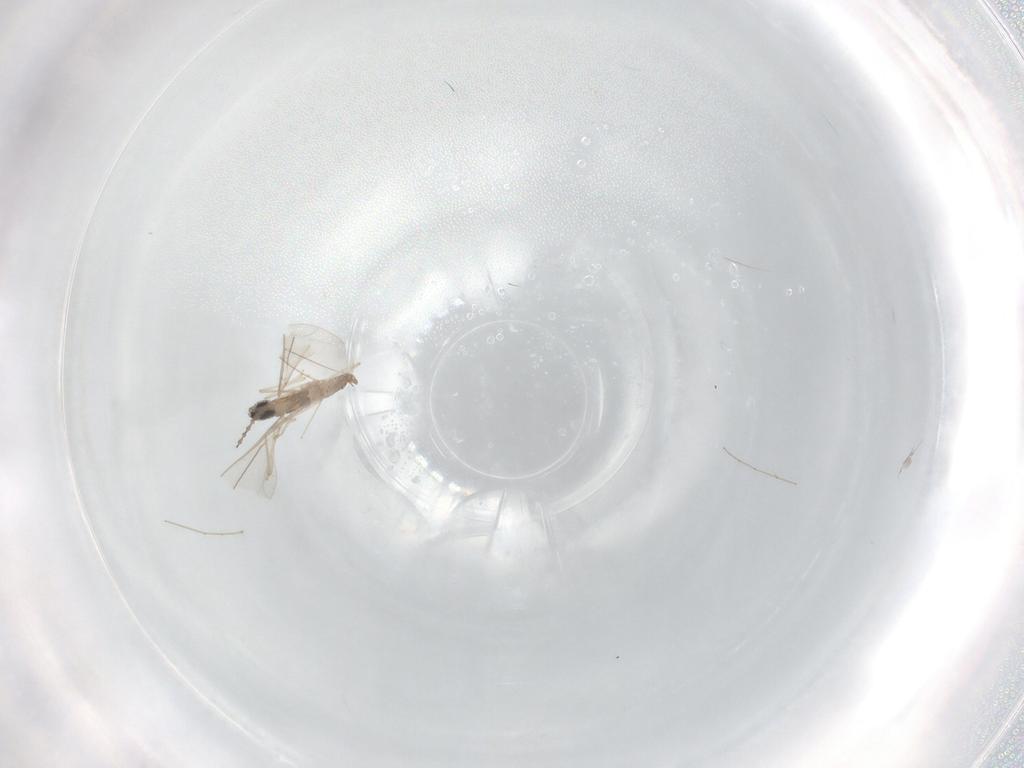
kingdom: Animalia
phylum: Arthropoda
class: Insecta
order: Diptera
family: Cecidomyiidae
